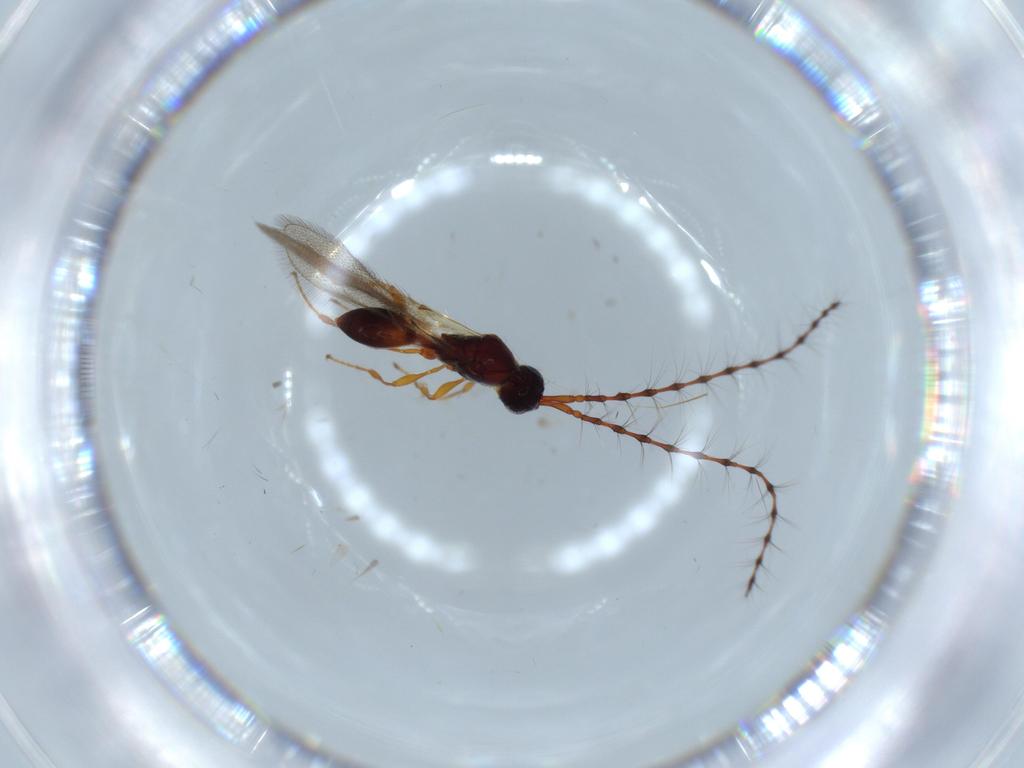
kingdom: Animalia
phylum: Arthropoda
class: Insecta
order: Hymenoptera
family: Diapriidae
